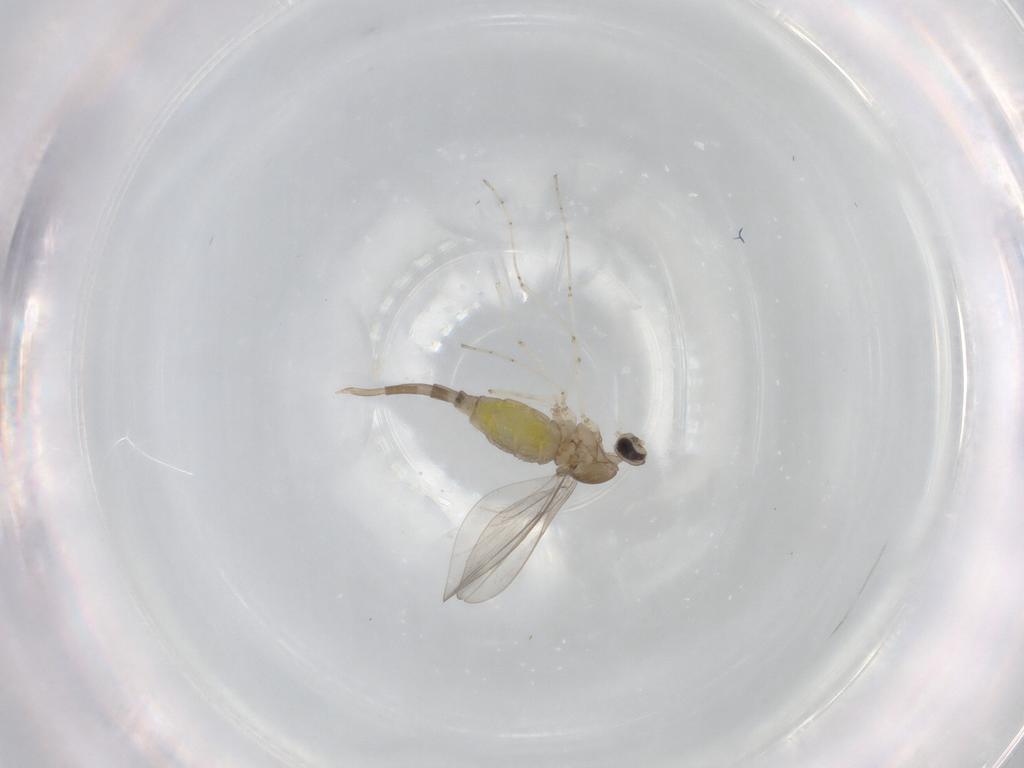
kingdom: Animalia
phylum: Arthropoda
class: Insecta
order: Diptera
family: Cecidomyiidae
